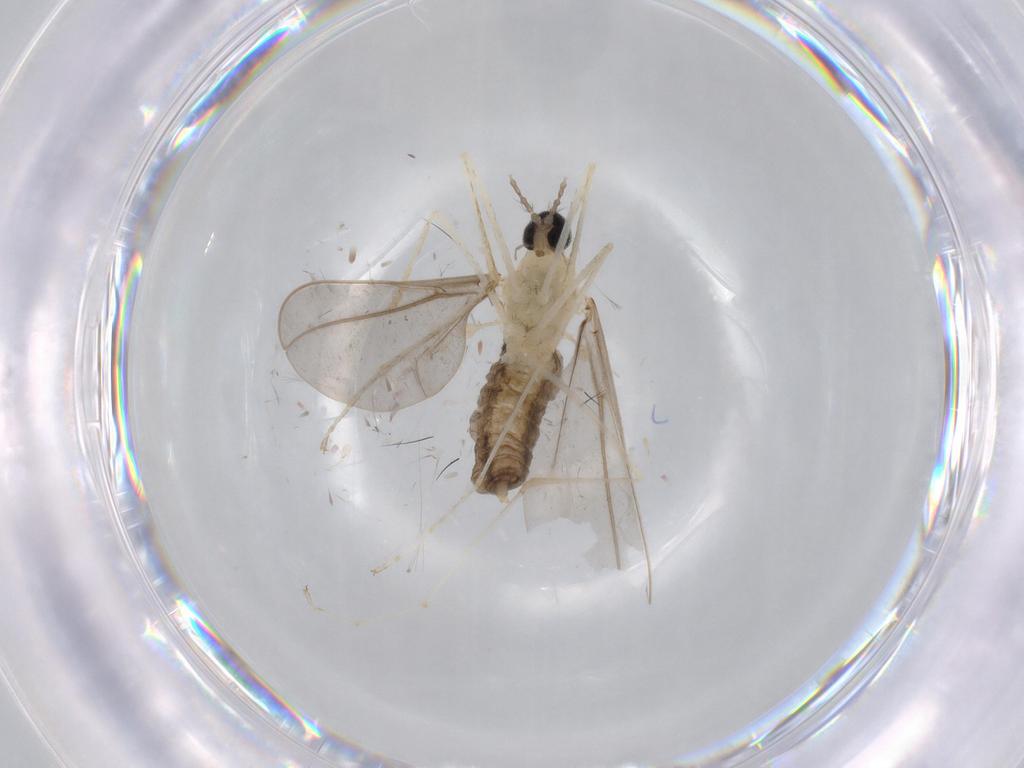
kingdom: Animalia
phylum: Arthropoda
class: Insecta
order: Diptera
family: Cecidomyiidae
